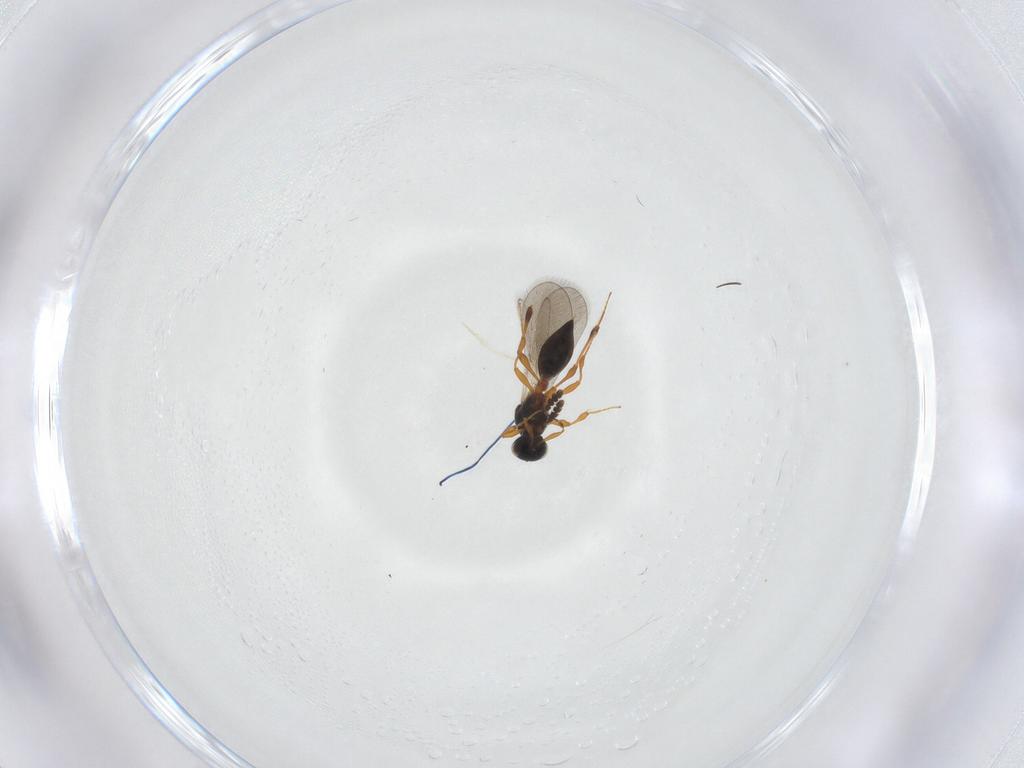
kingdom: Animalia
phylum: Arthropoda
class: Insecta
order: Hymenoptera
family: Platygastridae
